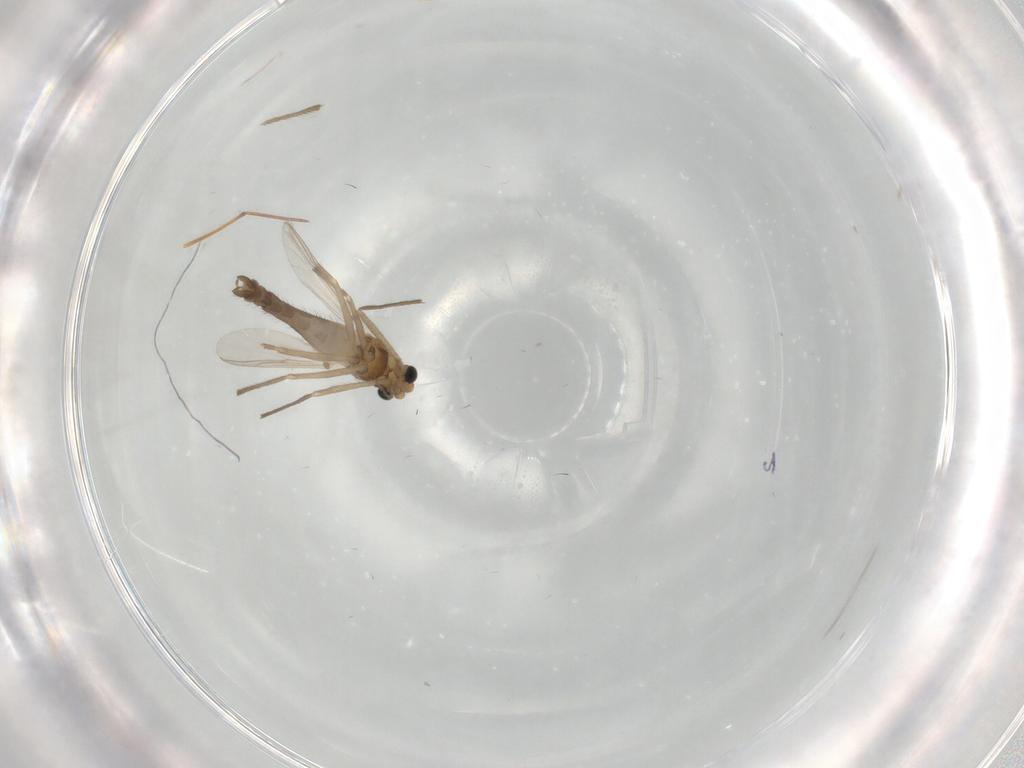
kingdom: Animalia
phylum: Arthropoda
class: Insecta
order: Diptera
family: Chironomidae
